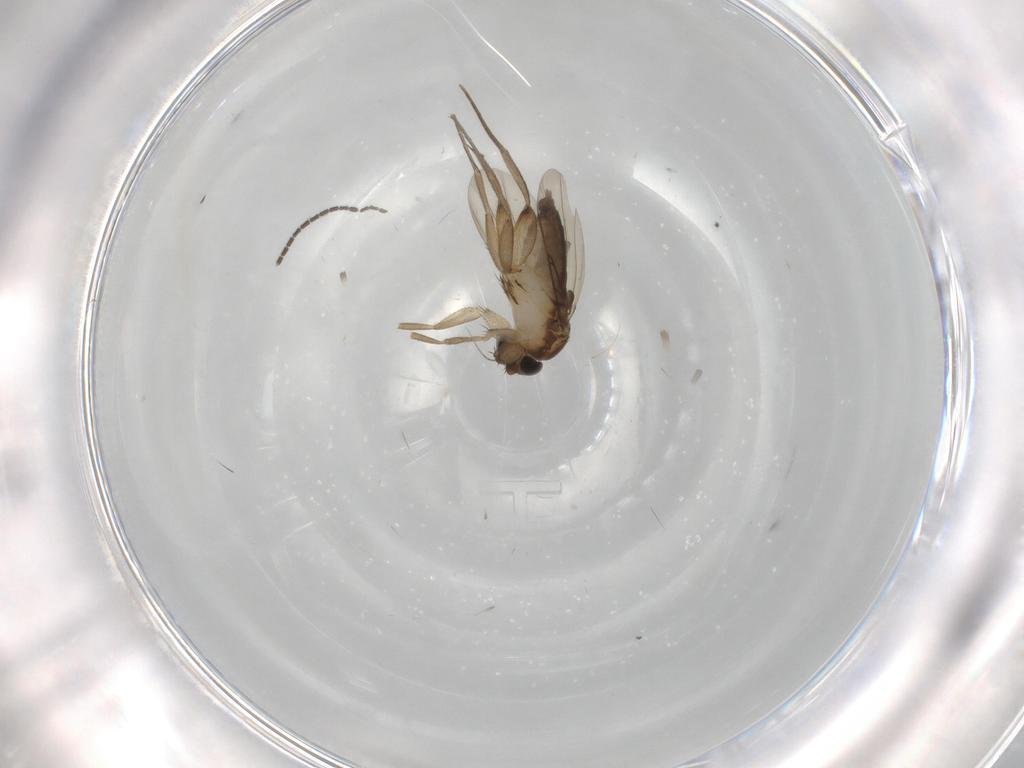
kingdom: Animalia
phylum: Arthropoda
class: Insecta
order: Diptera
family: Phoridae
